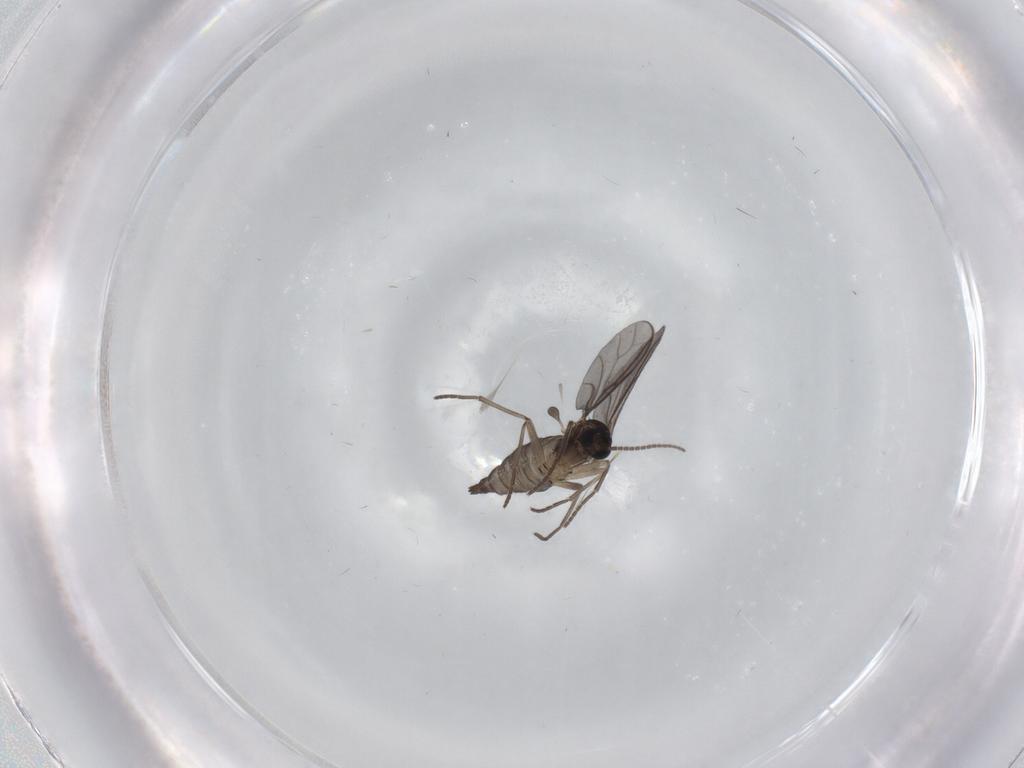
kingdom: Animalia
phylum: Arthropoda
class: Insecta
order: Diptera
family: Sciaridae
